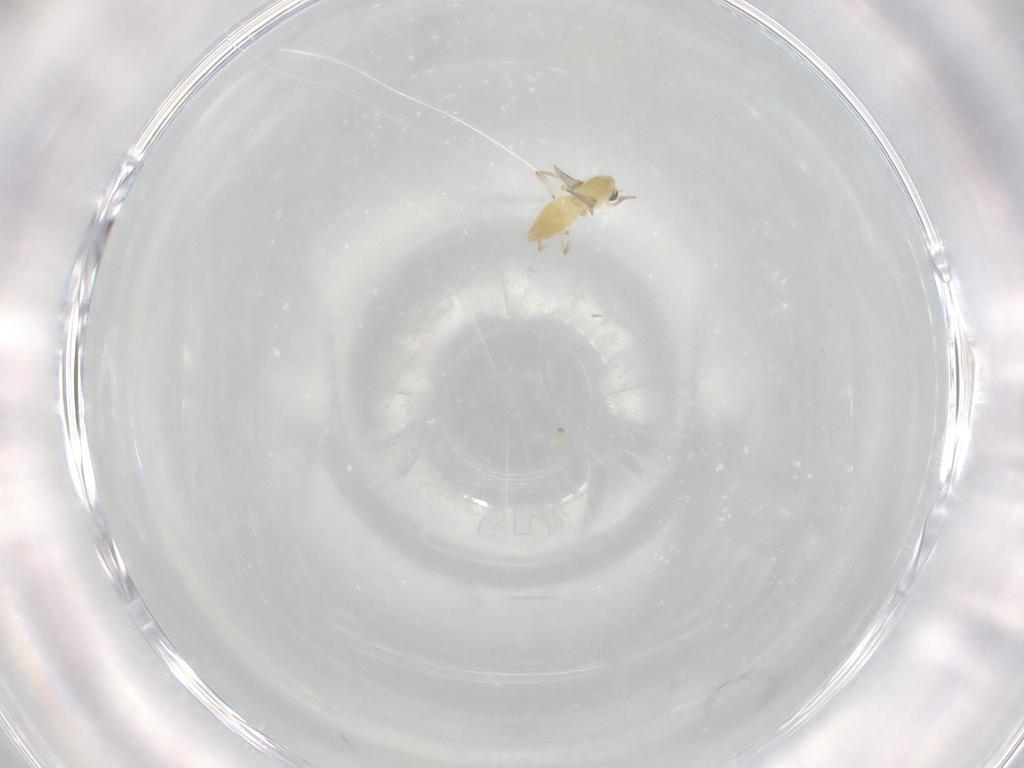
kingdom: Animalia
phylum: Arthropoda
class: Insecta
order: Diptera
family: Chironomidae
